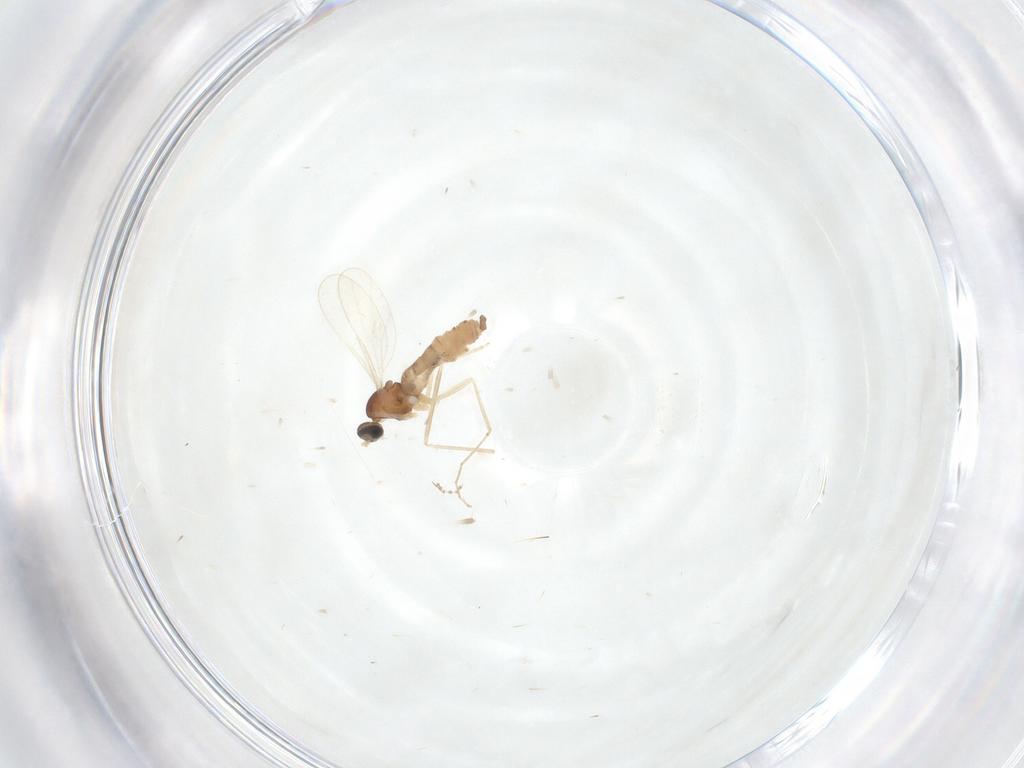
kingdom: Animalia
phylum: Arthropoda
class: Insecta
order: Diptera
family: Cecidomyiidae
